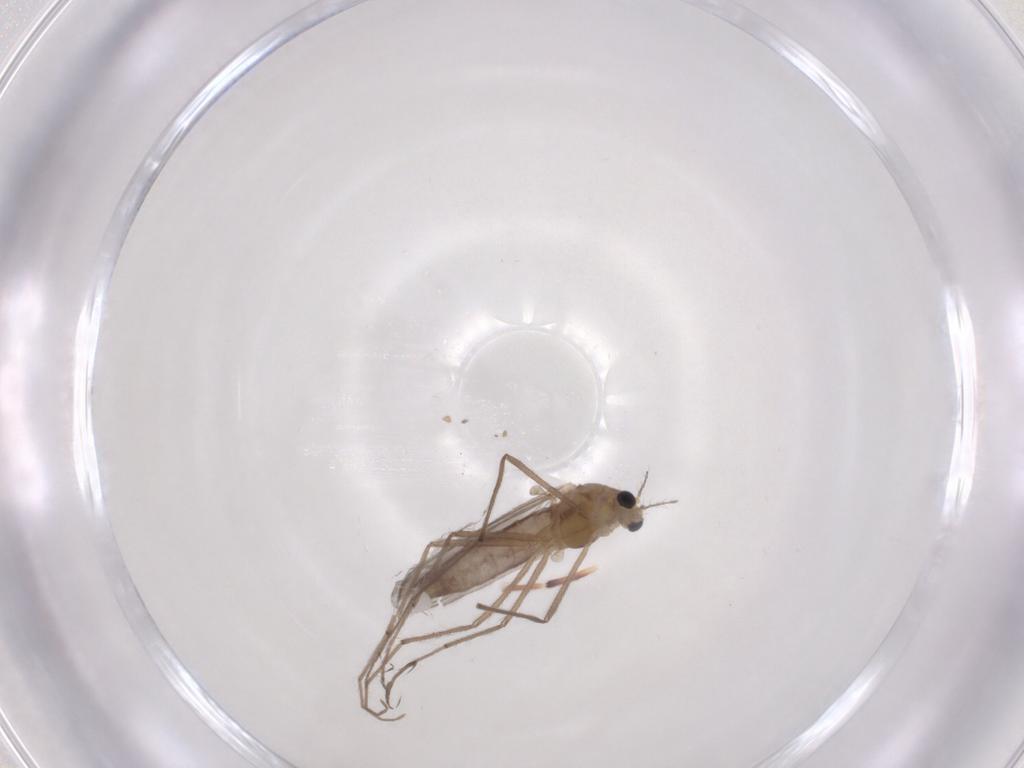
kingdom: Animalia
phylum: Arthropoda
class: Insecta
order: Diptera
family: Chironomidae
